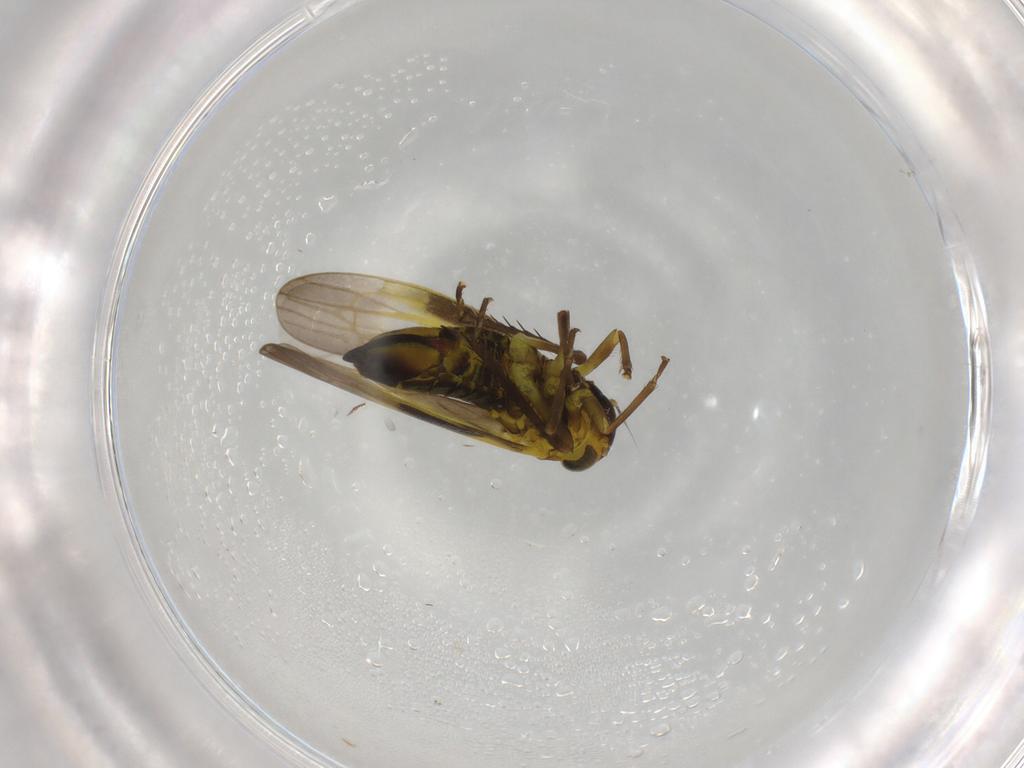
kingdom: Animalia
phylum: Arthropoda
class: Insecta
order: Hemiptera
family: Cicadellidae
